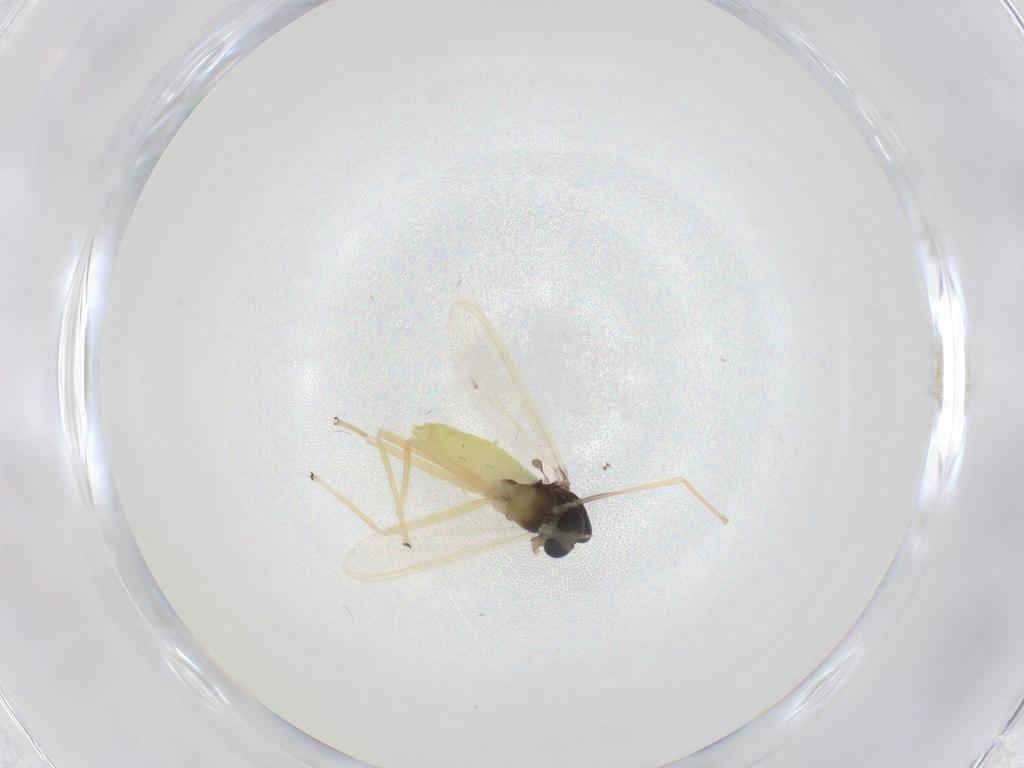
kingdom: Animalia
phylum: Arthropoda
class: Insecta
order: Diptera
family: Chironomidae
